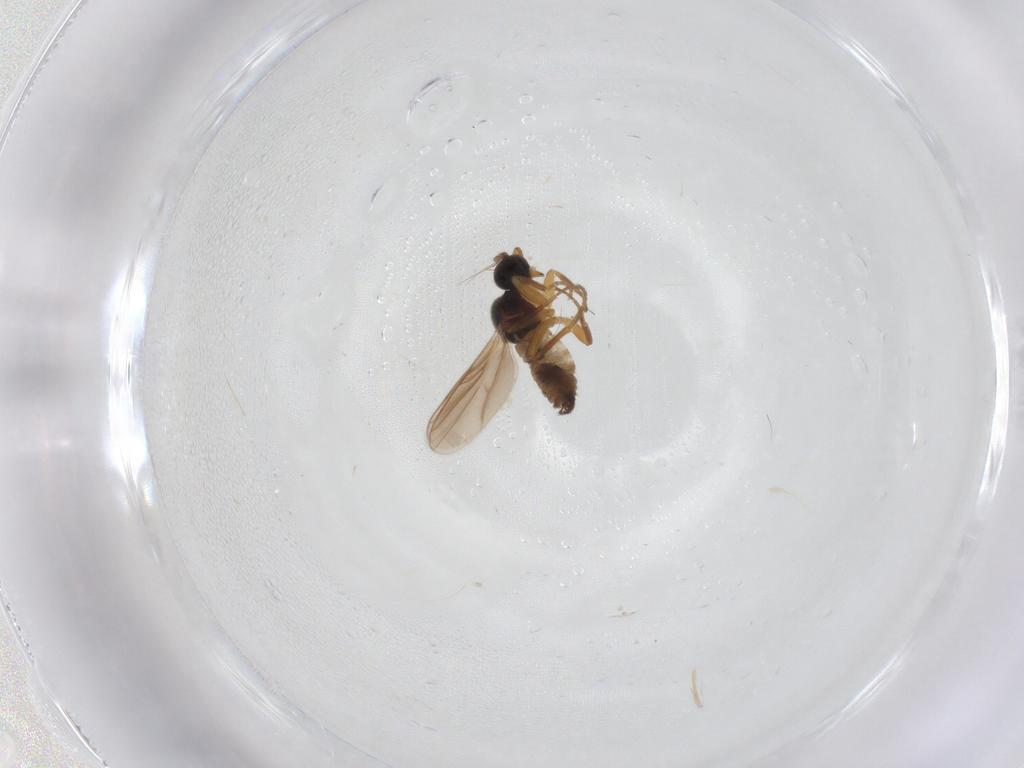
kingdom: Animalia
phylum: Arthropoda
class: Insecta
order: Diptera
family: Hybotidae
